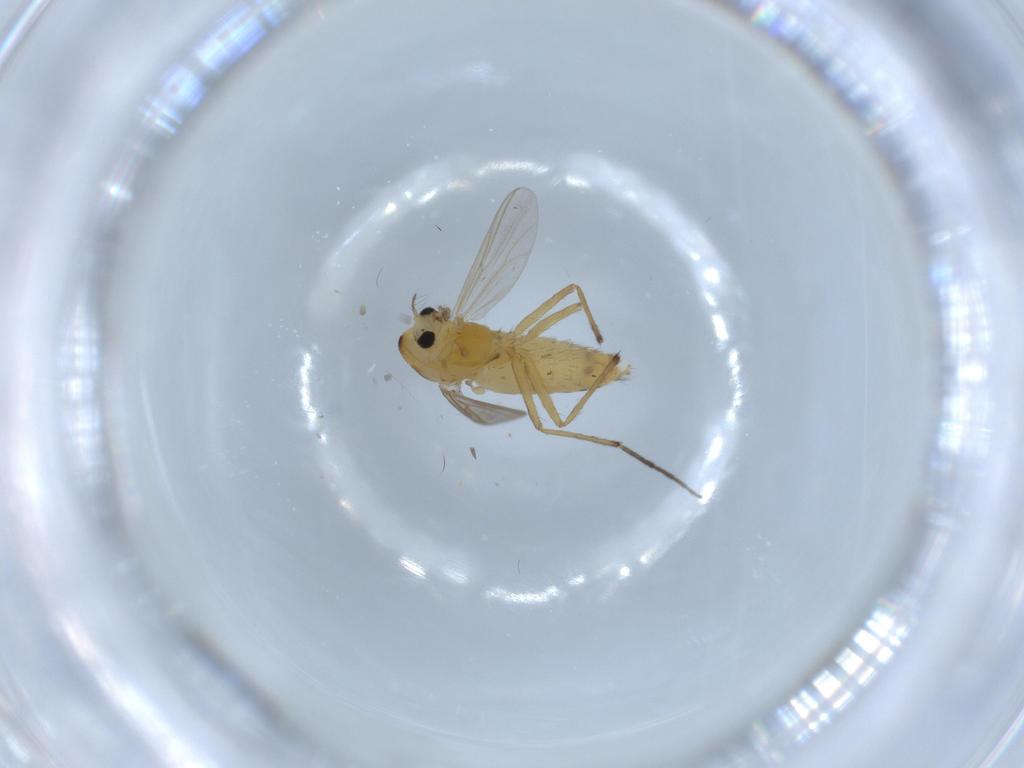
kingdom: Animalia
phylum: Arthropoda
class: Insecta
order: Diptera
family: Chironomidae
